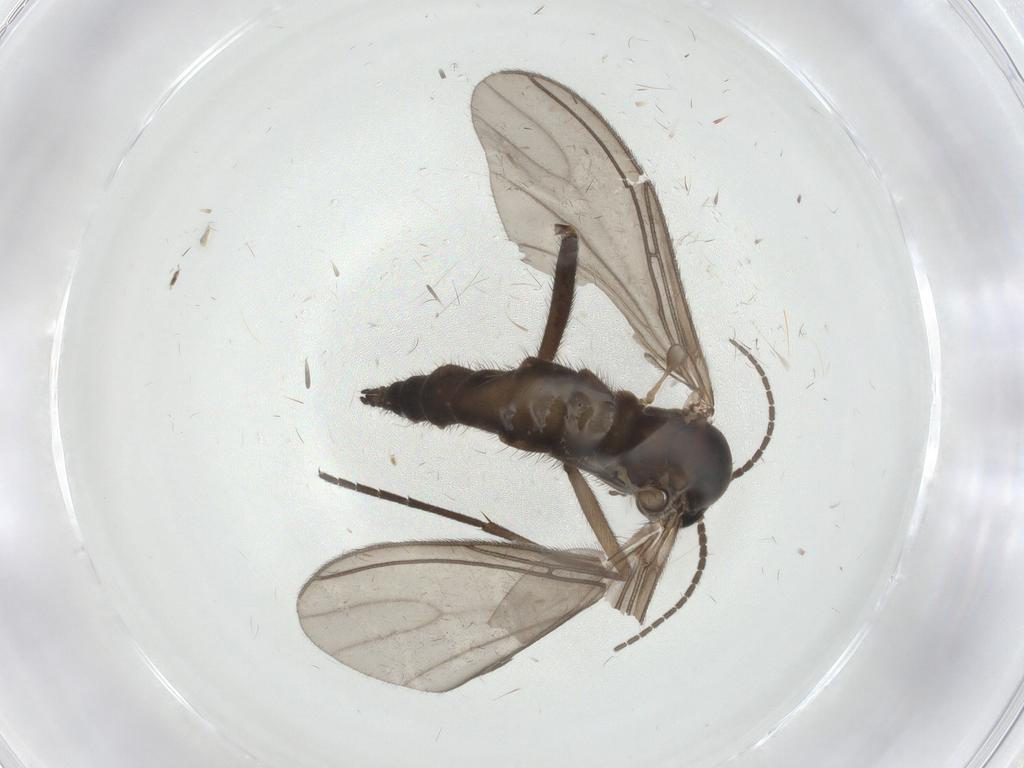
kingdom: Animalia
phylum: Arthropoda
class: Insecta
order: Diptera
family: Sciaridae
